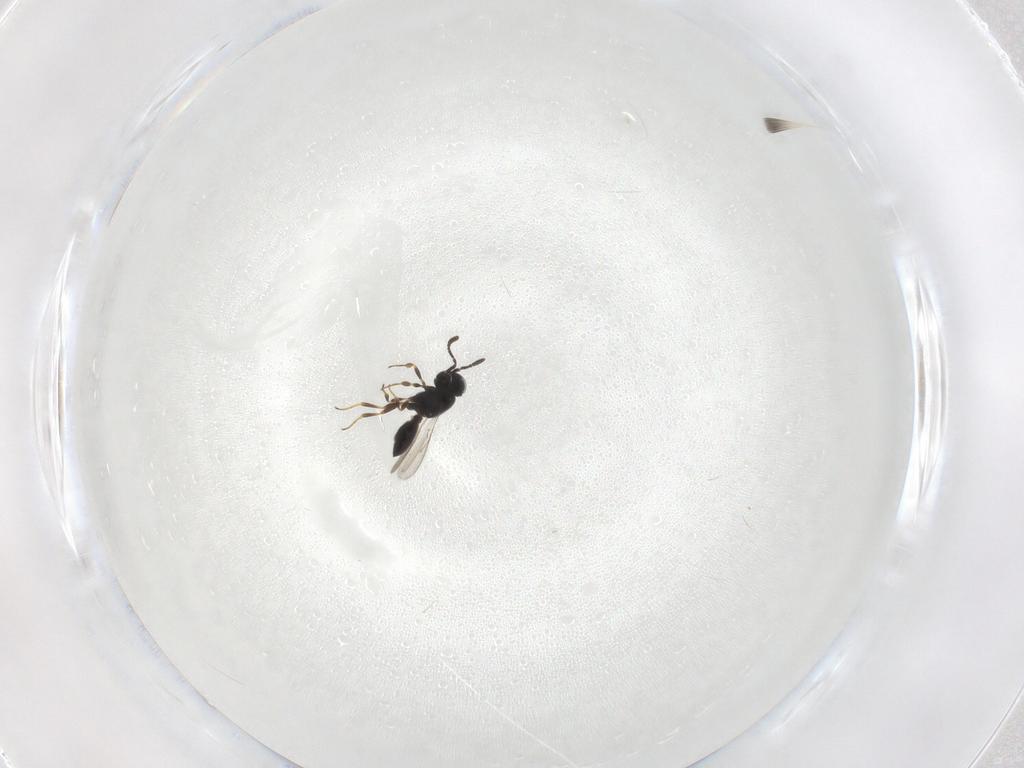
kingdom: Animalia
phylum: Arthropoda
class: Insecta
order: Hymenoptera
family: Scelionidae
